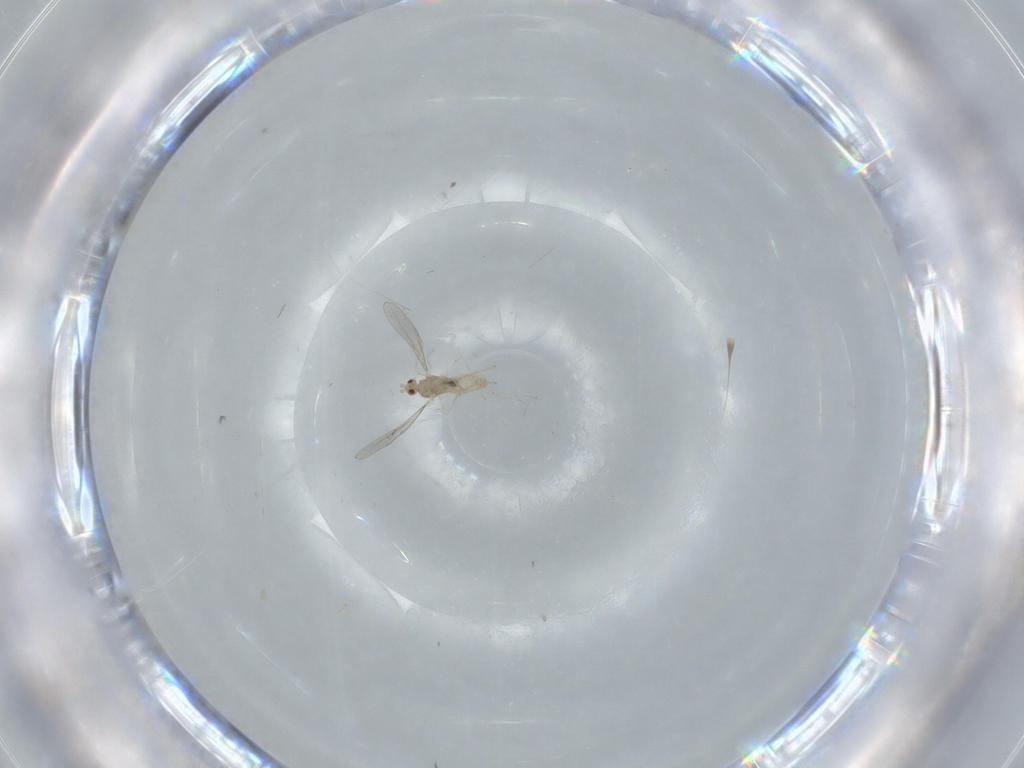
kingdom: Animalia
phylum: Arthropoda
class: Insecta
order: Diptera
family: Cecidomyiidae
